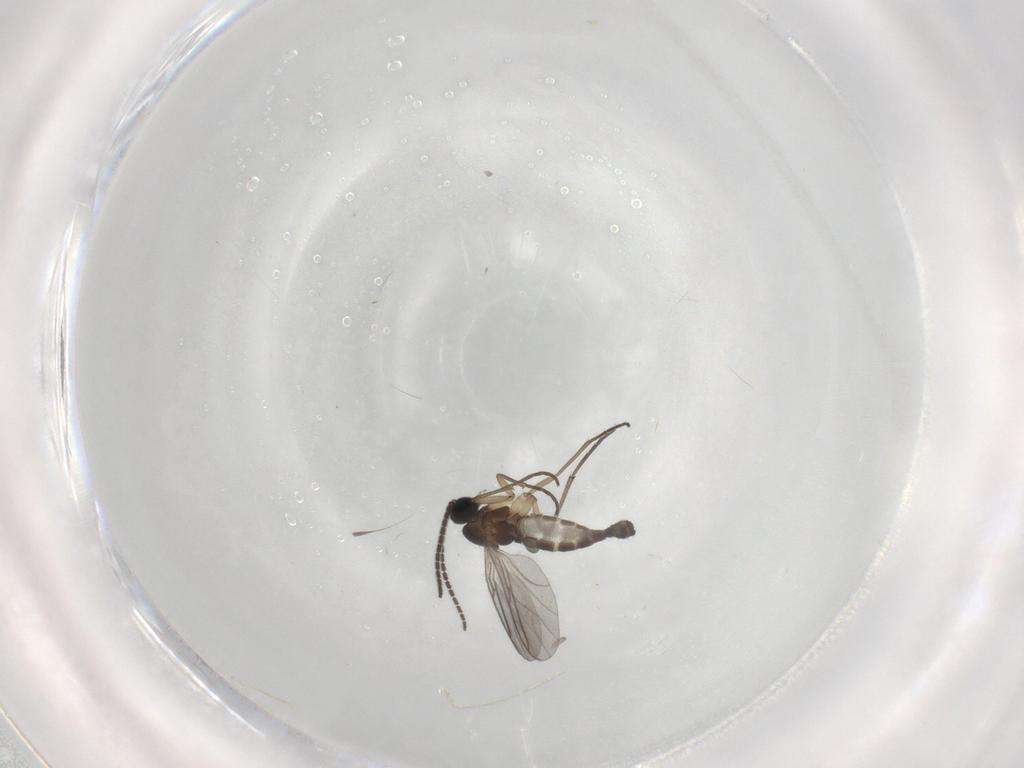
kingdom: Animalia
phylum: Arthropoda
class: Insecta
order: Diptera
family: Sciaridae
